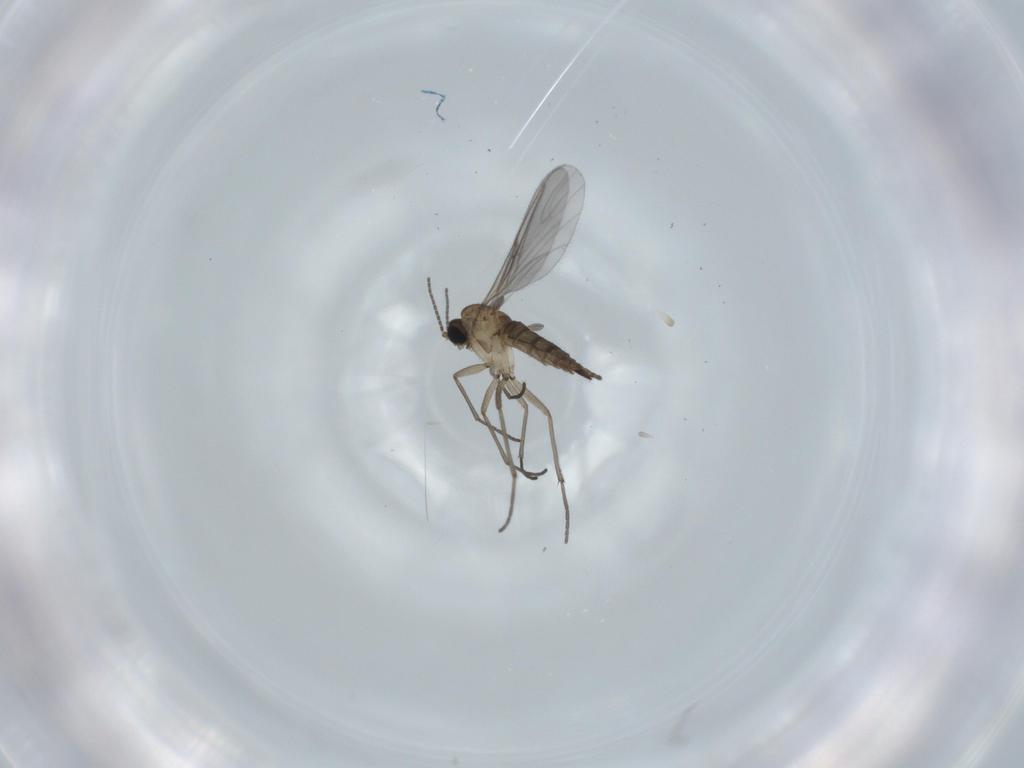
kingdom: Animalia
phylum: Arthropoda
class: Insecta
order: Diptera
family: Sciaridae
